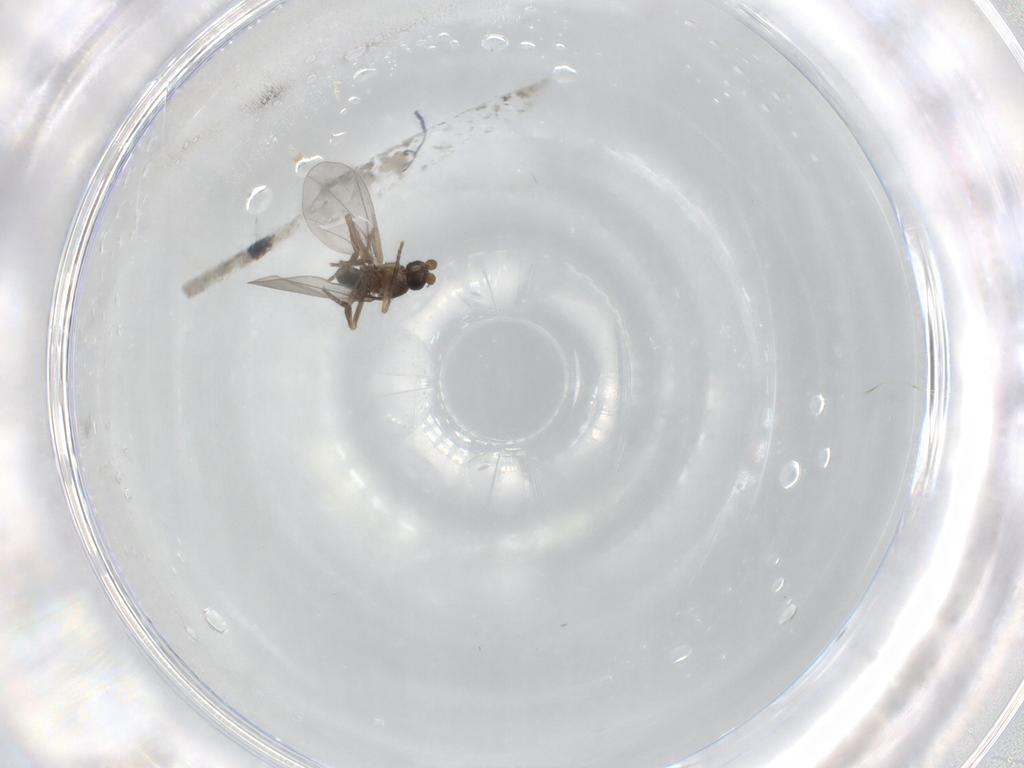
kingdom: Animalia
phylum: Arthropoda
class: Insecta
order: Diptera
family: Phoridae
